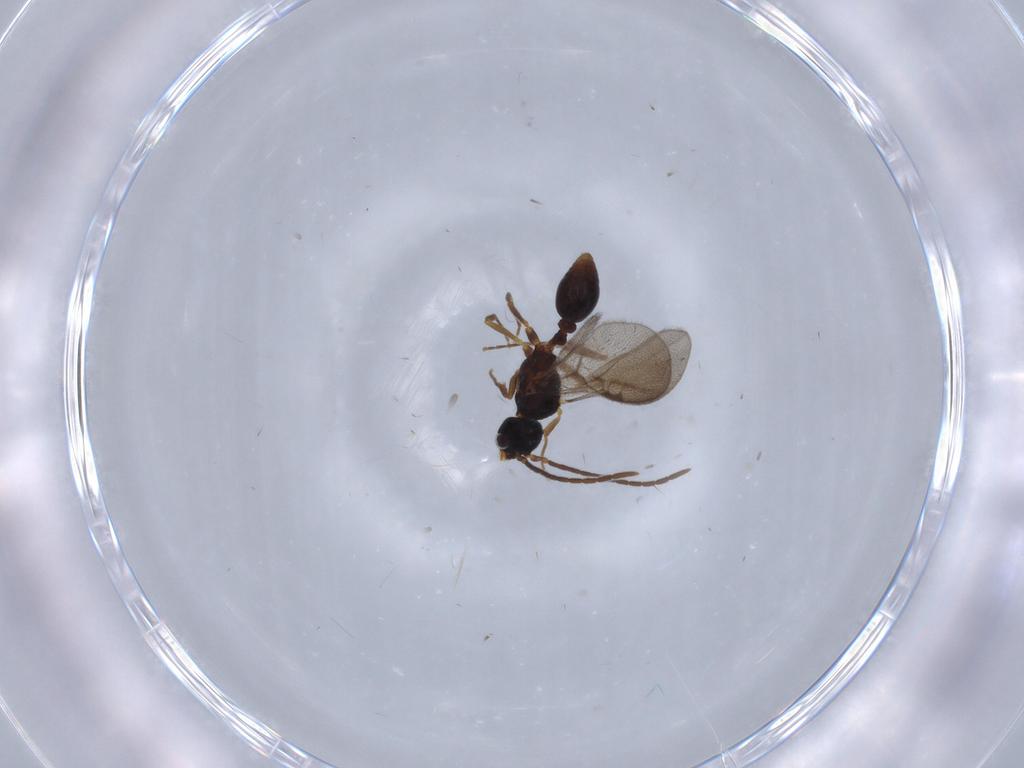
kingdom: Animalia
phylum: Arthropoda
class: Insecta
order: Hymenoptera
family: Formicidae
